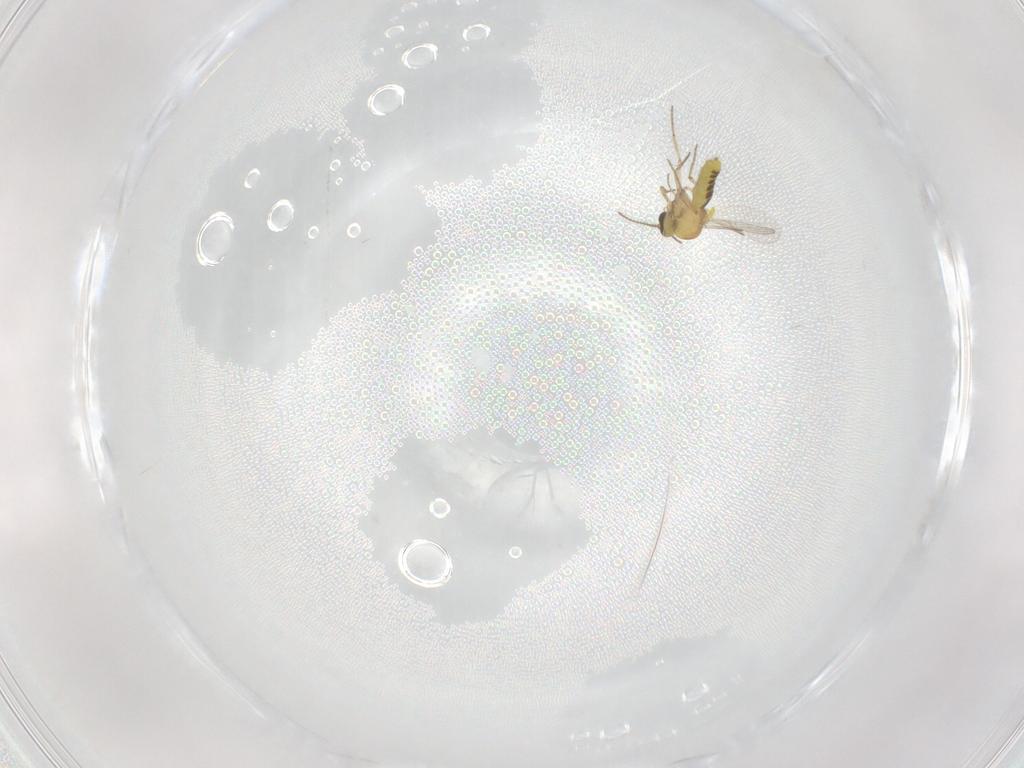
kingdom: Animalia
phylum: Arthropoda
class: Insecta
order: Diptera
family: Ceratopogonidae
